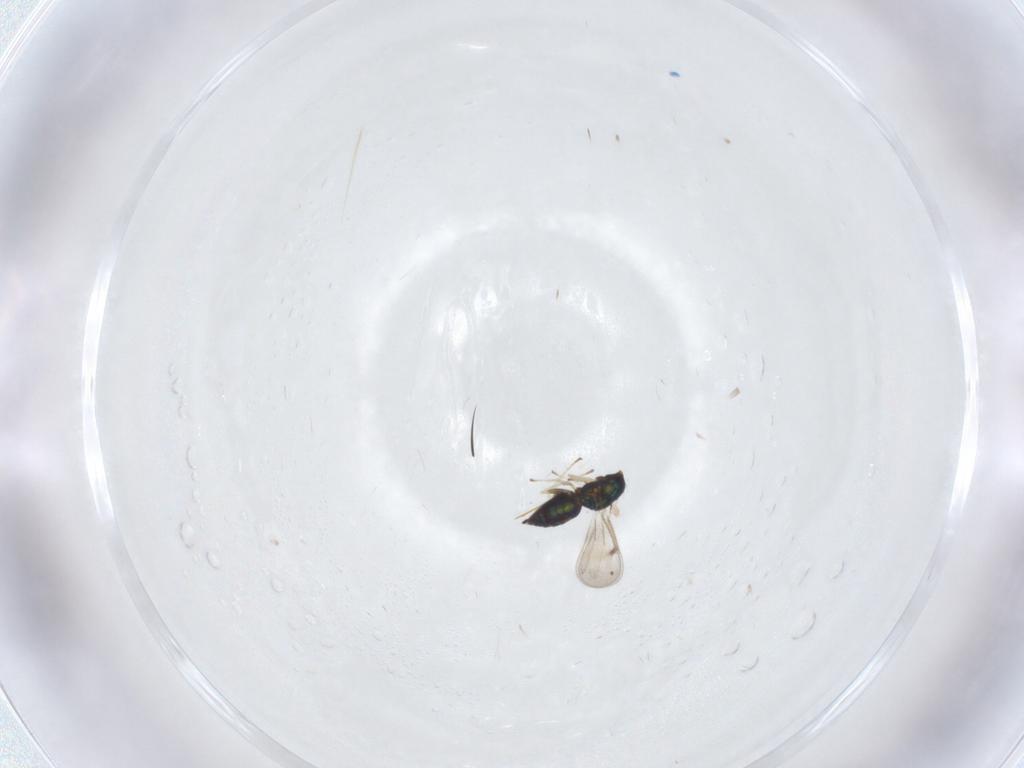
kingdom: Animalia
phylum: Arthropoda
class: Insecta
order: Hymenoptera
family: Eulophidae
